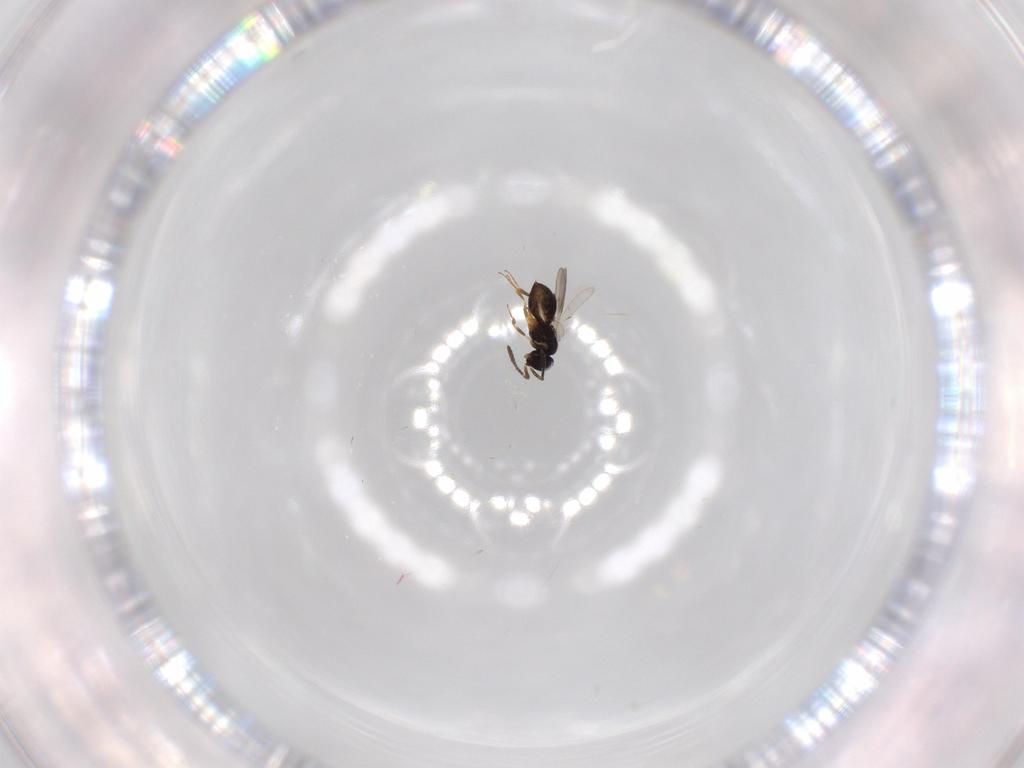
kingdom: Animalia
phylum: Arthropoda
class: Insecta
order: Hymenoptera
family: Scelionidae
